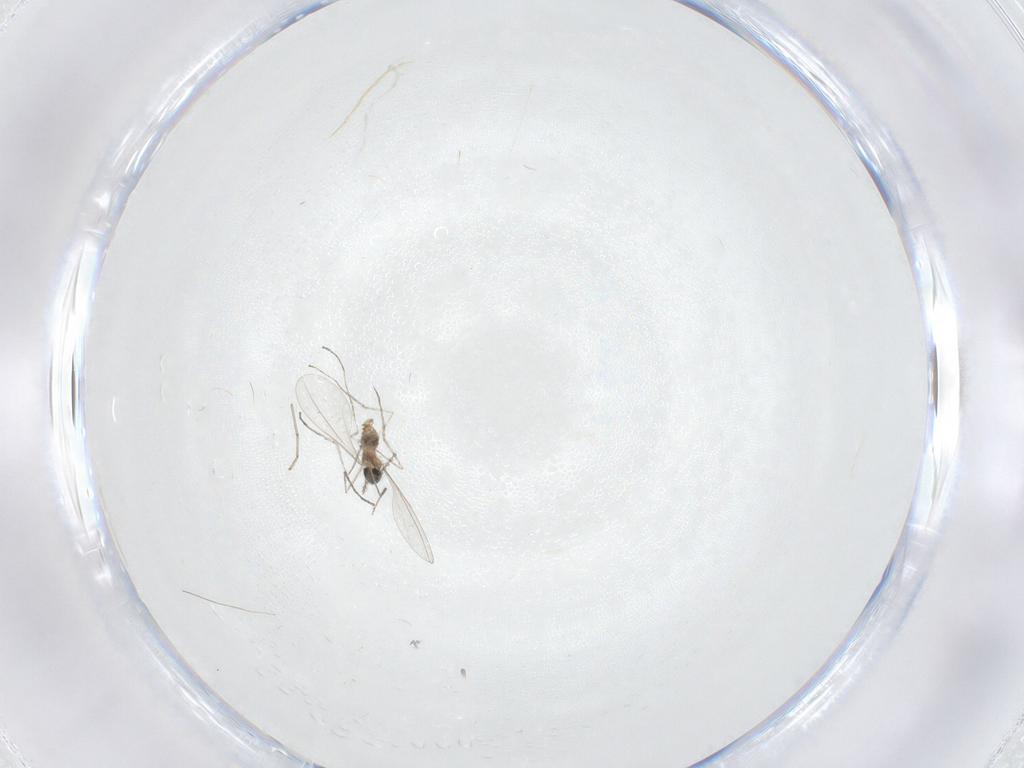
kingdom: Animalia
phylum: Arthropoda
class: Insecta
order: Diptera
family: Cecidomyiidae
